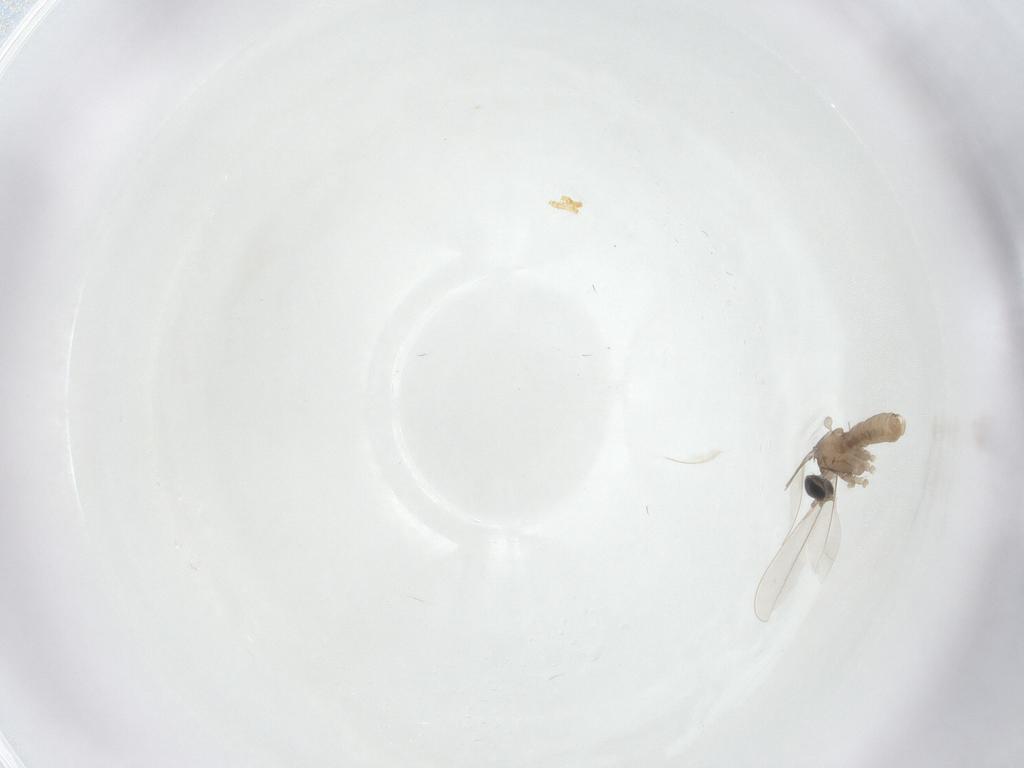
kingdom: Animalia
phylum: Arthropoda
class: Insecta
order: Diptera
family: Cecidomyiidae
